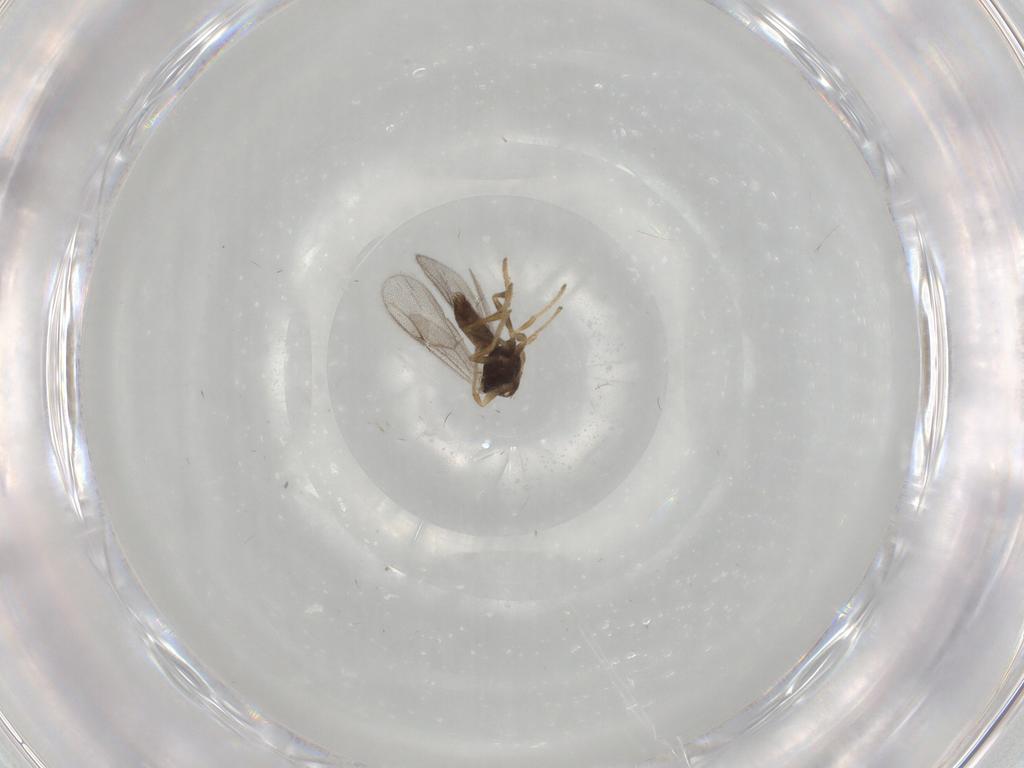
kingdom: Animalia
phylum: Arthropoda
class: Insecta
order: Hymenoptera
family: Dryinidae
